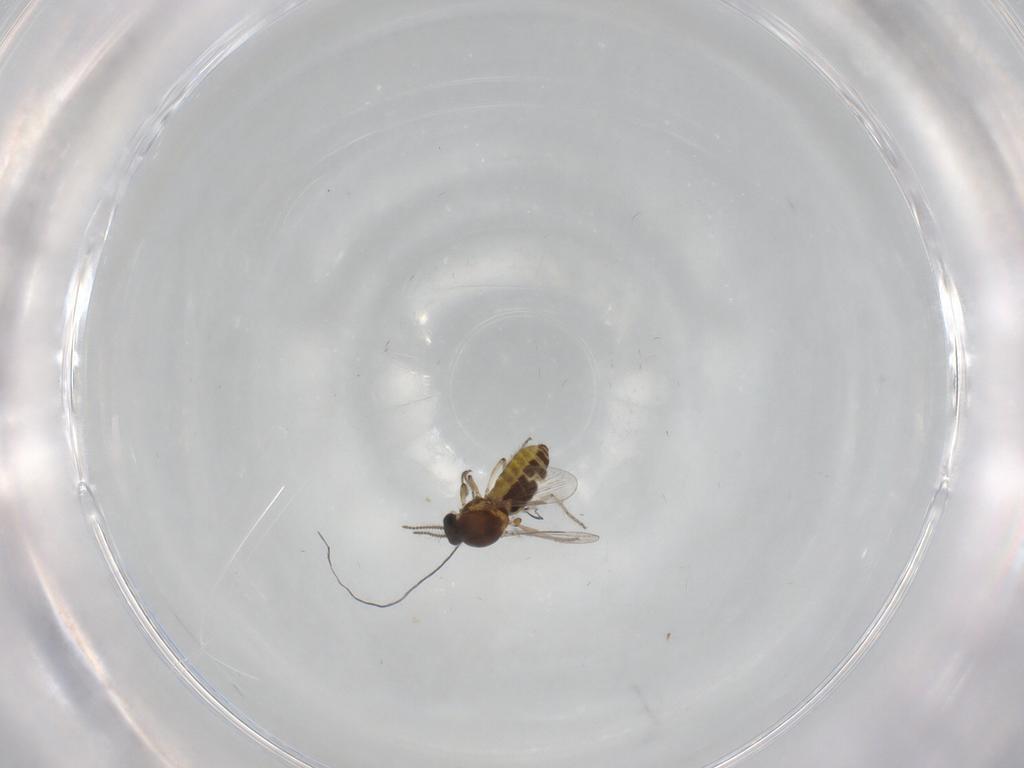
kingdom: Animalia
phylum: Arthropoda
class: Insecta
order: Diptera
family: Ceratopogonidae
